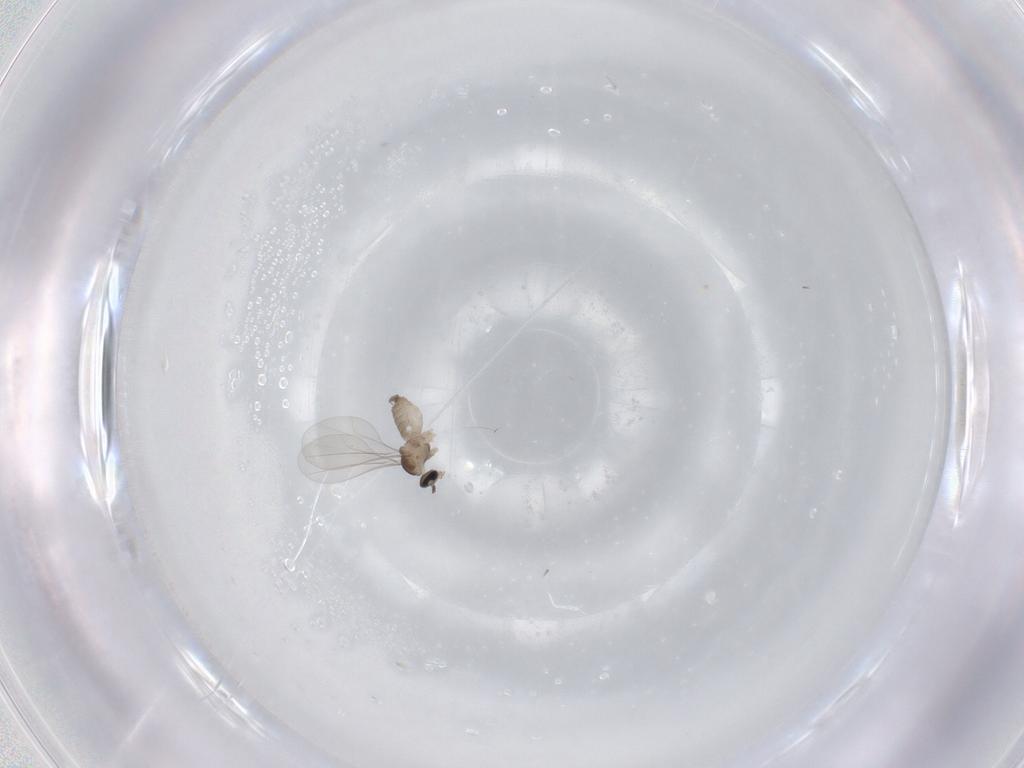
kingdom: Animalia
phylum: Arthropoda
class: Insecta
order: Diptera
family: Cecidomyiidae
